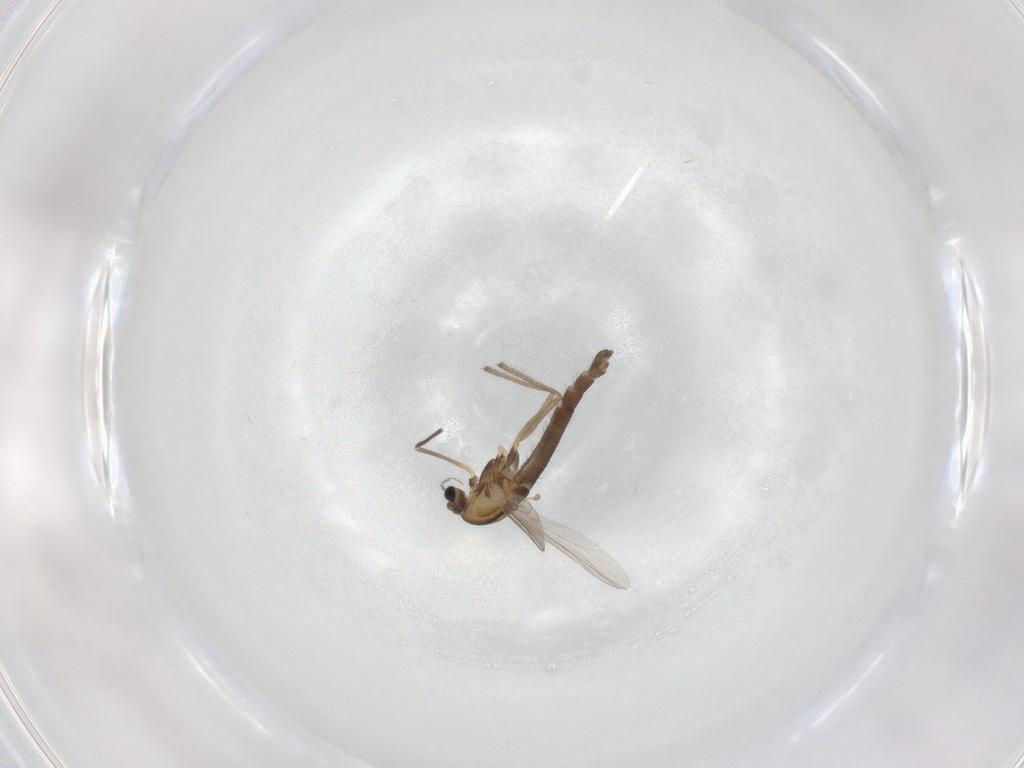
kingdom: Animalia
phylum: Arthropoda
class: Insecta
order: Diptera
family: Chironomidae
